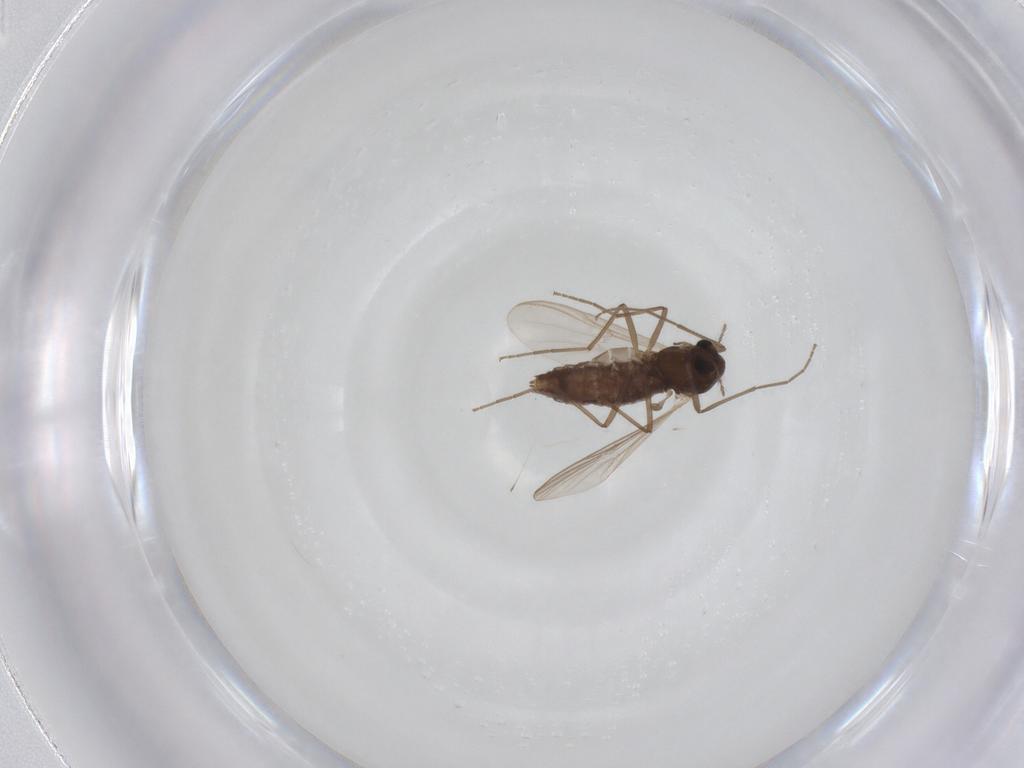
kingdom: Animalia
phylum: Arthropoda
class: Insecta
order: Diptera
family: Chironomidae
